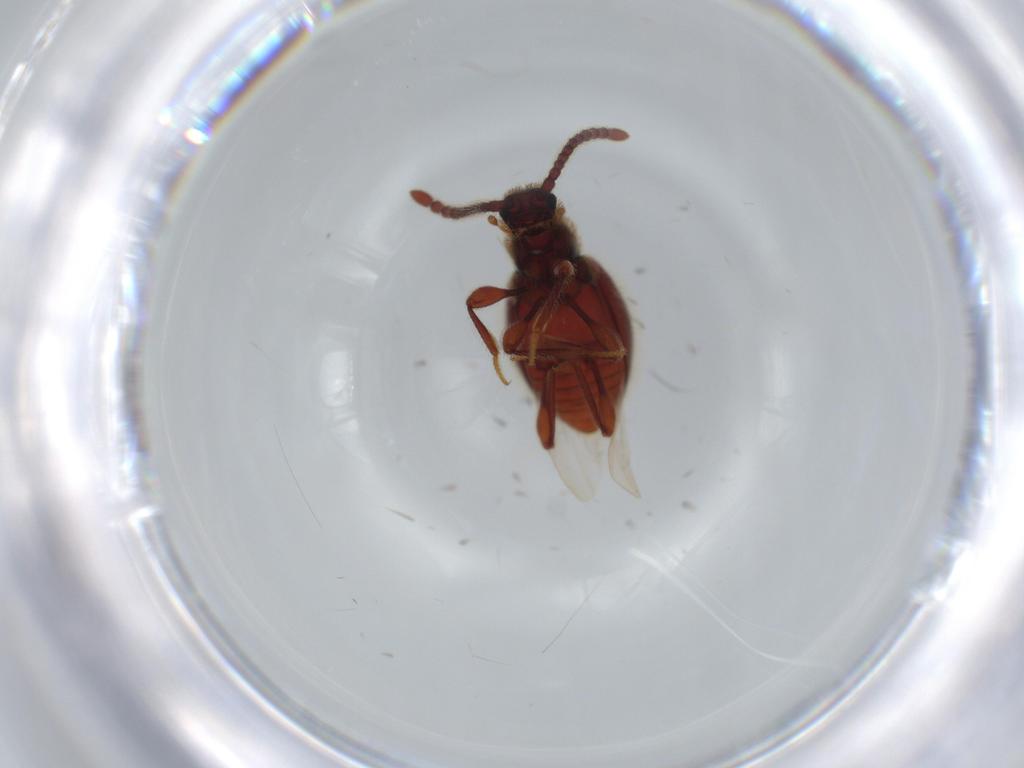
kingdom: Animalia
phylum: Arthropoda
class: Insecta
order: Coleoptera
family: Staphylinidae
